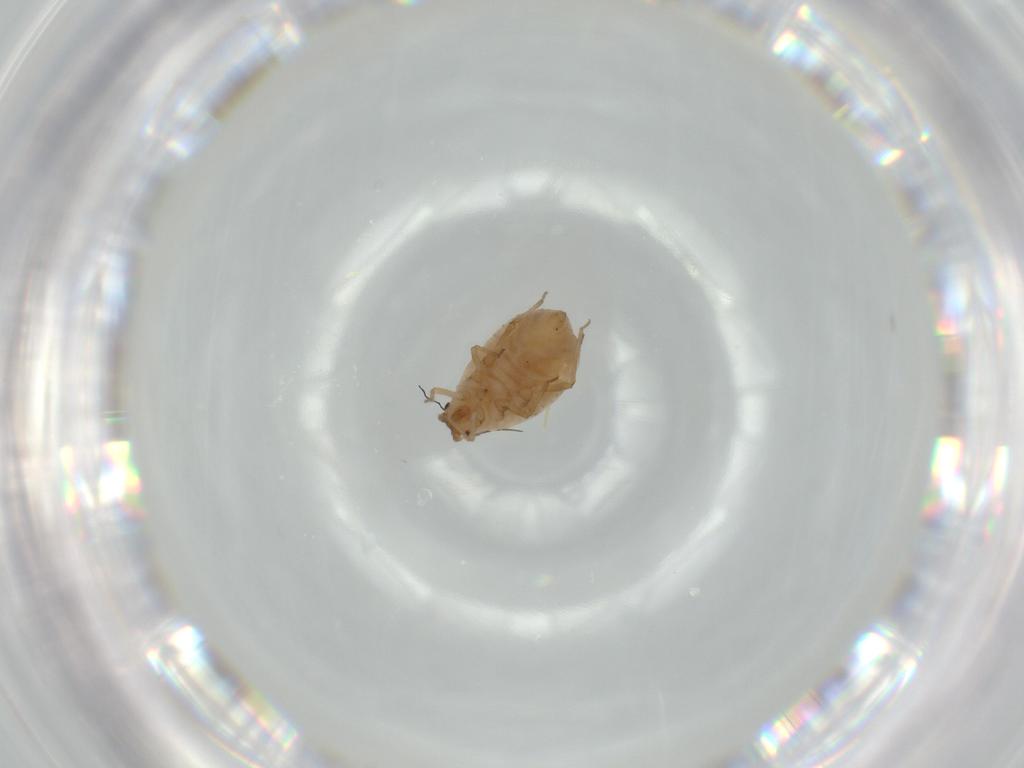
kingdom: Animalia
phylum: Arthropoda
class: Insecta
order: Hemiptera
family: Aphididae
